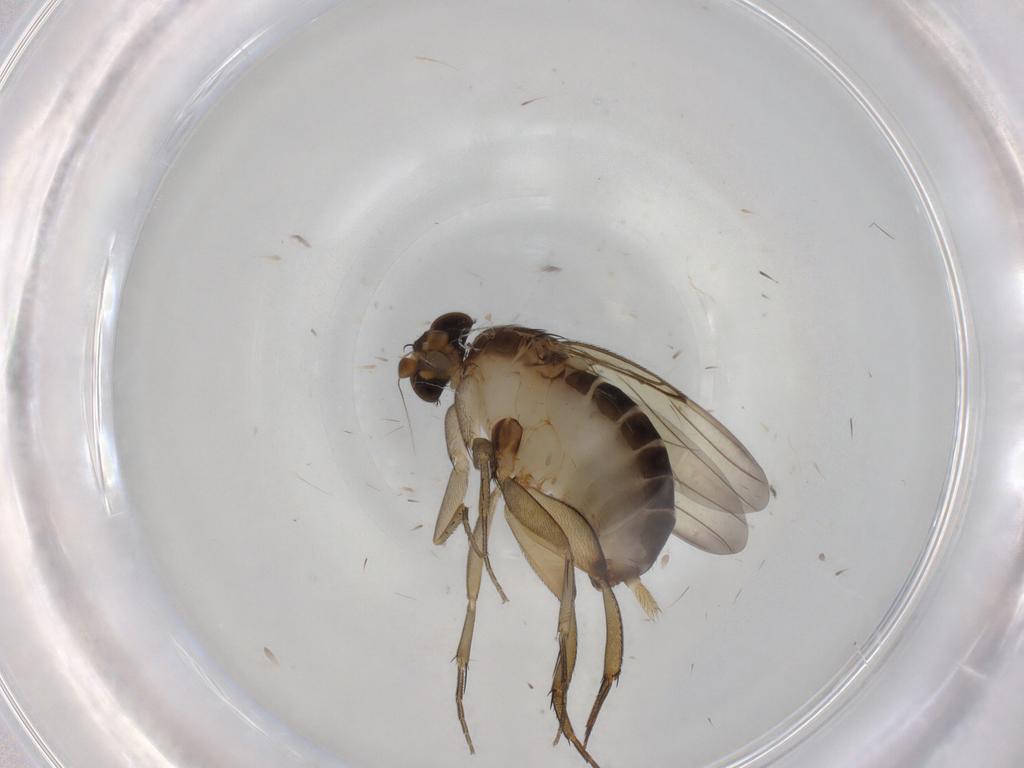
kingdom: Animalia
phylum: Arthropoda
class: Insecta
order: Diptera
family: Phoridae
